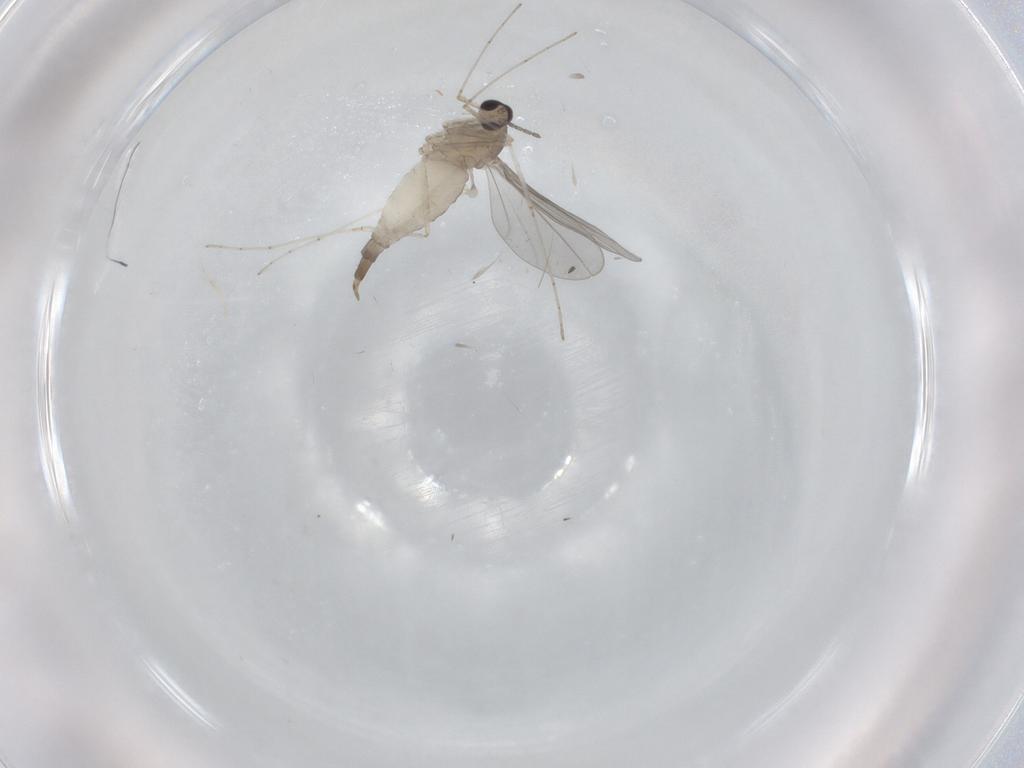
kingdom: Animalia
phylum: Arthropoda
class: Insecta
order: Diptera
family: Cecidomyiidae
